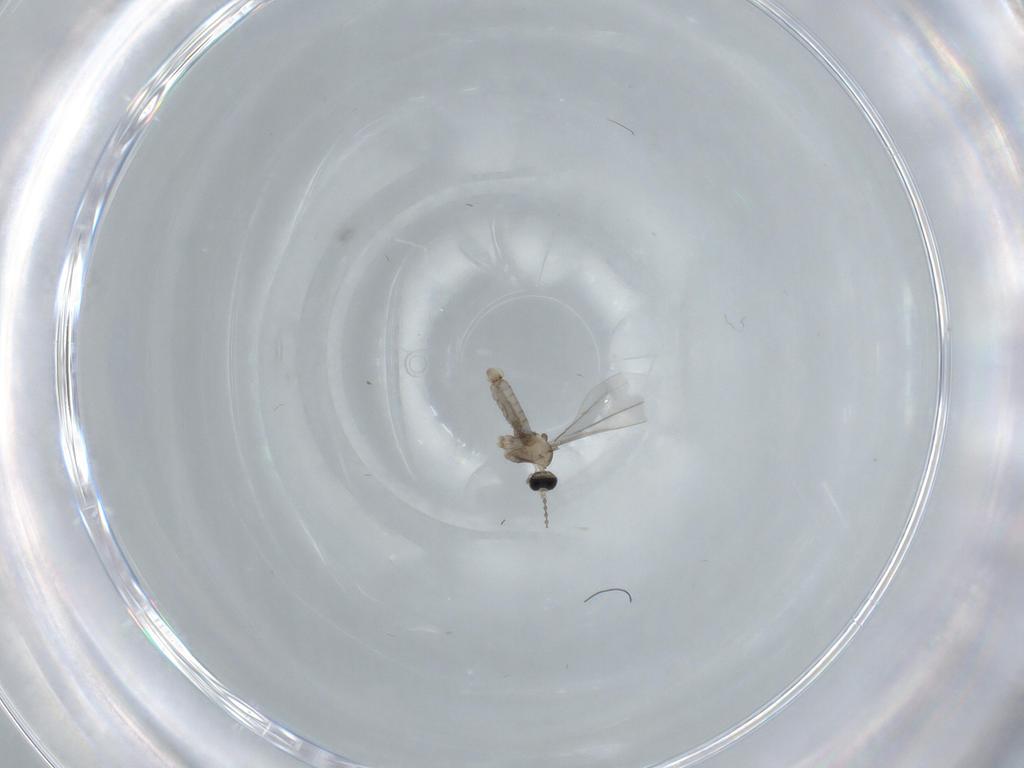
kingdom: Animalia
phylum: Arthropoda
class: Insecta
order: Diptera
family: Cecidomyiidae
